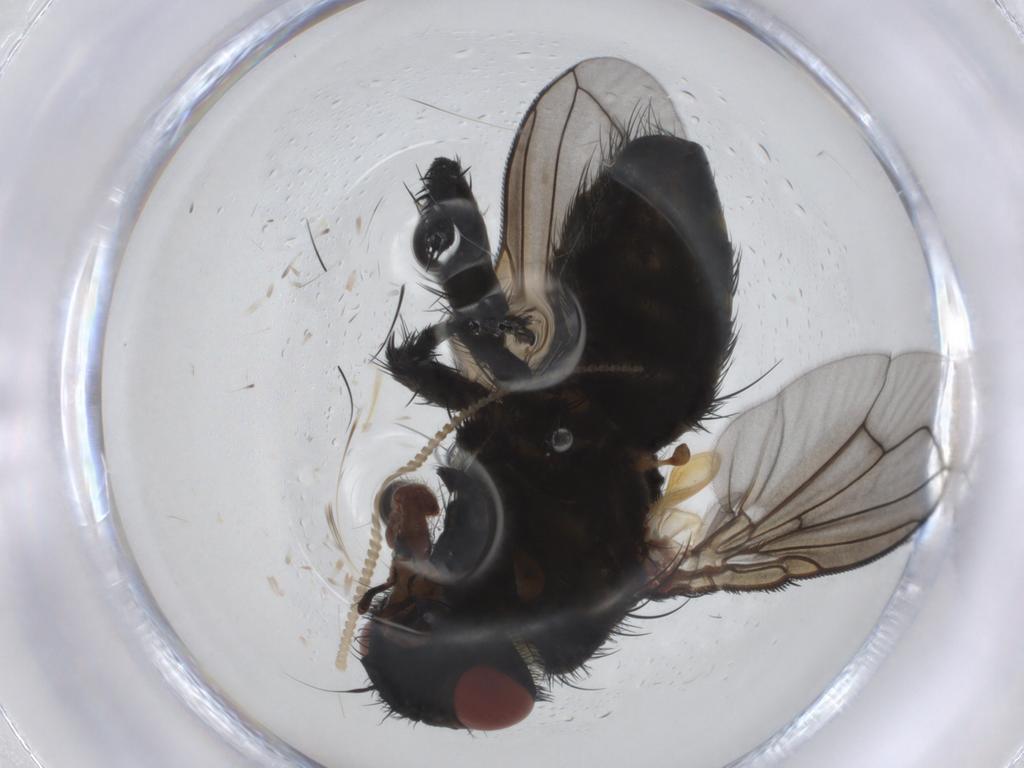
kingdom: Animalia
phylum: Arthropoda
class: Insecta
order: Diptera
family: Tachinidae
